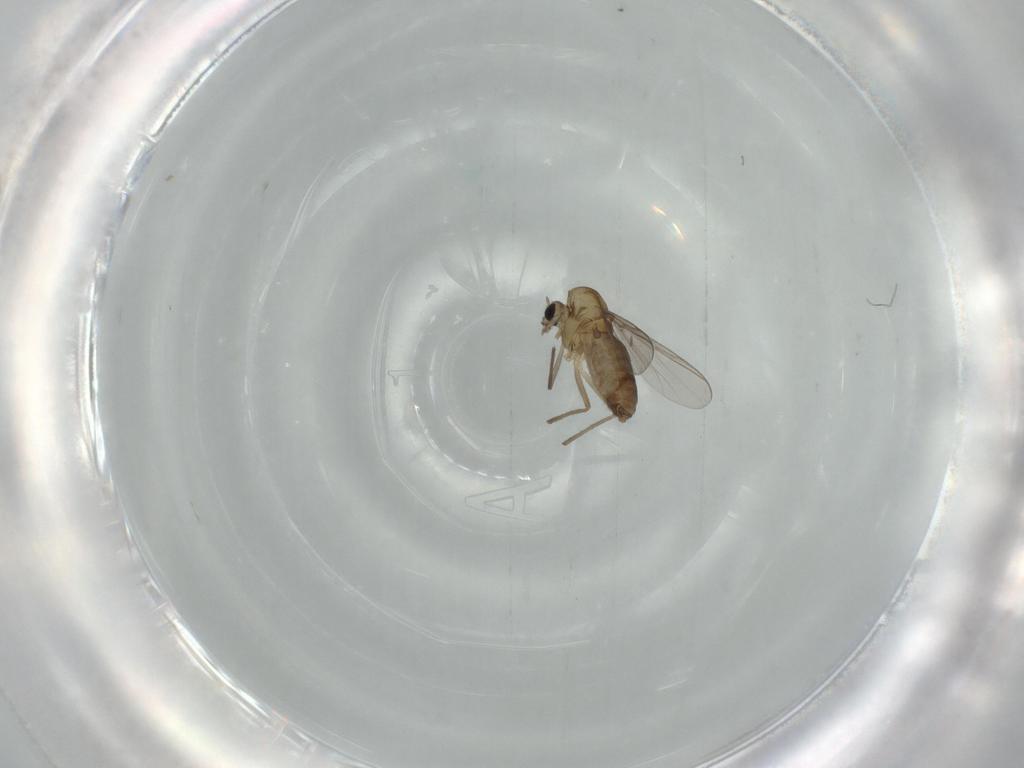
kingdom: Animalia
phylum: Arthropoda
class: Insecta
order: Diptera
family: Chironomidae
